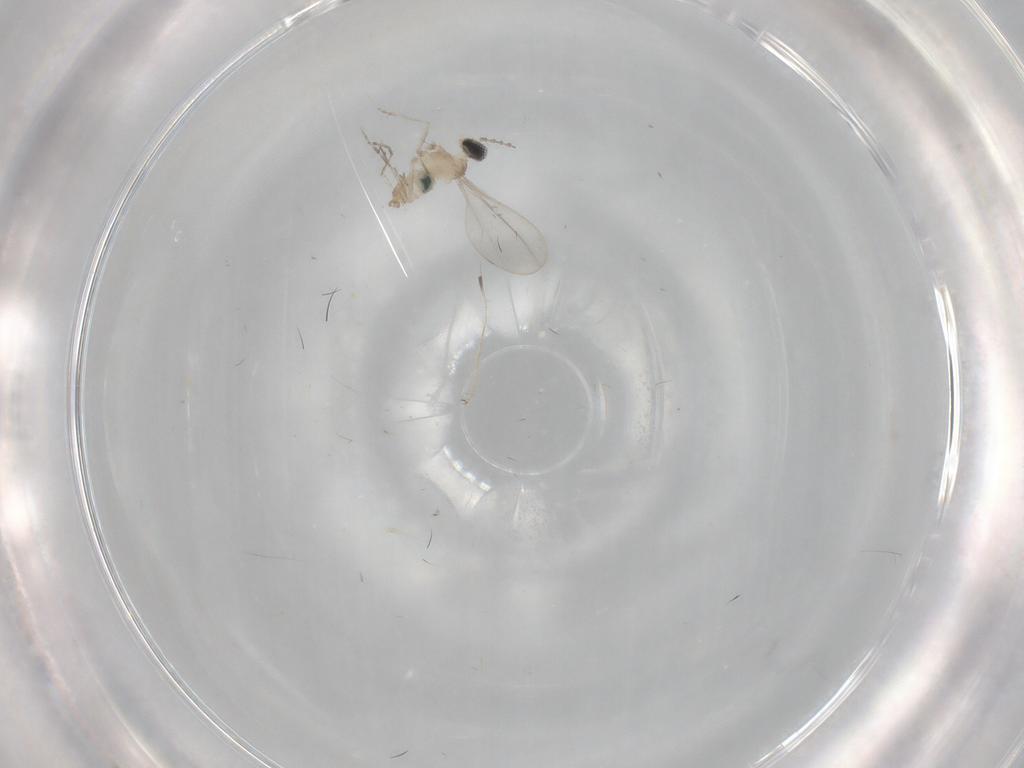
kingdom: Animalia
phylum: Arthropoda
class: Insecta
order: Diptera
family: Cecidomyiidae
